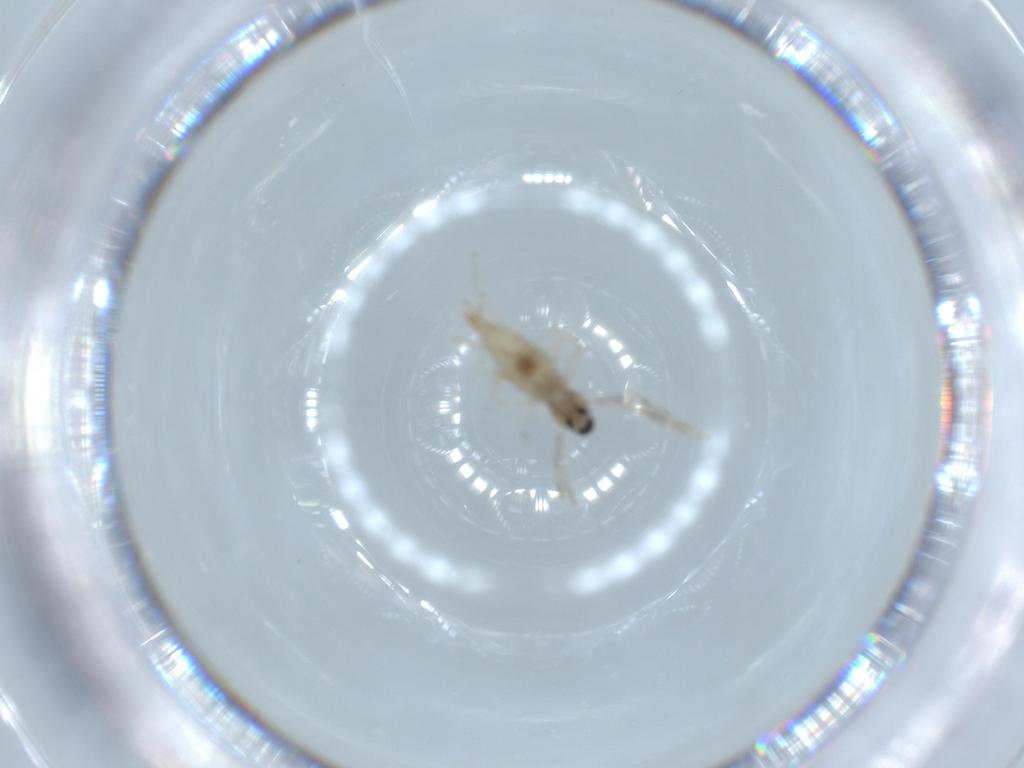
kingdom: Animalia
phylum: Arthropoda
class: Insecta
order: Diptera
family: Cecidomyiidae
